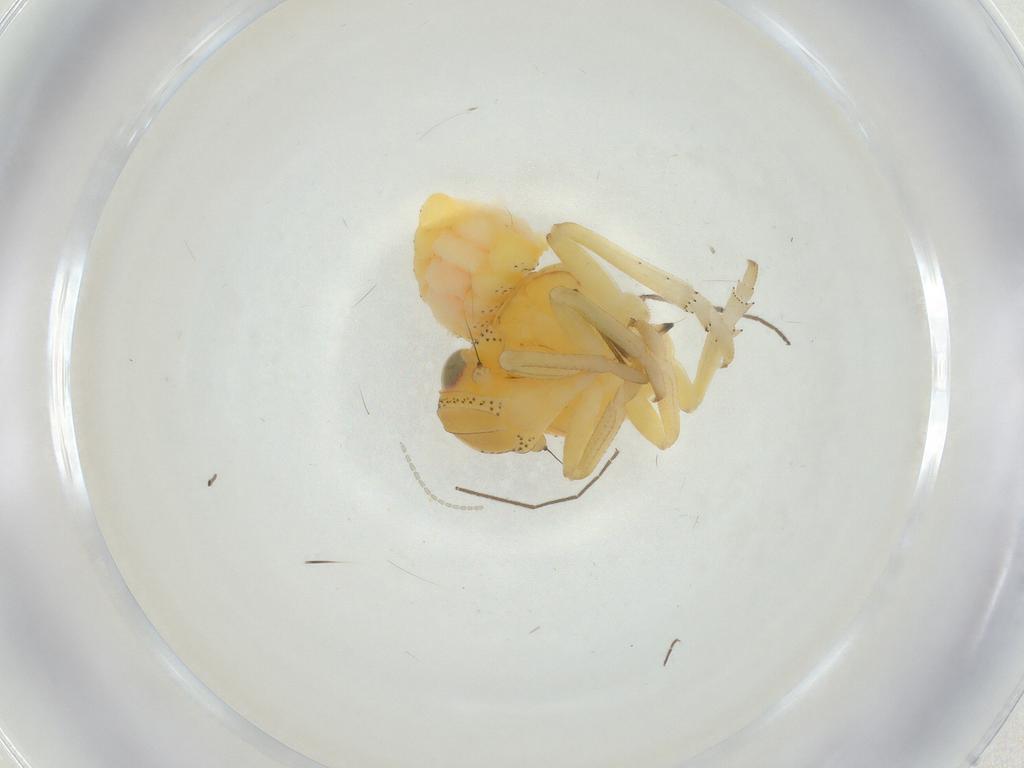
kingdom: Animalia
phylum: Arthropoda
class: Insecta
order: Hemiptera
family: Tropiduchidae
